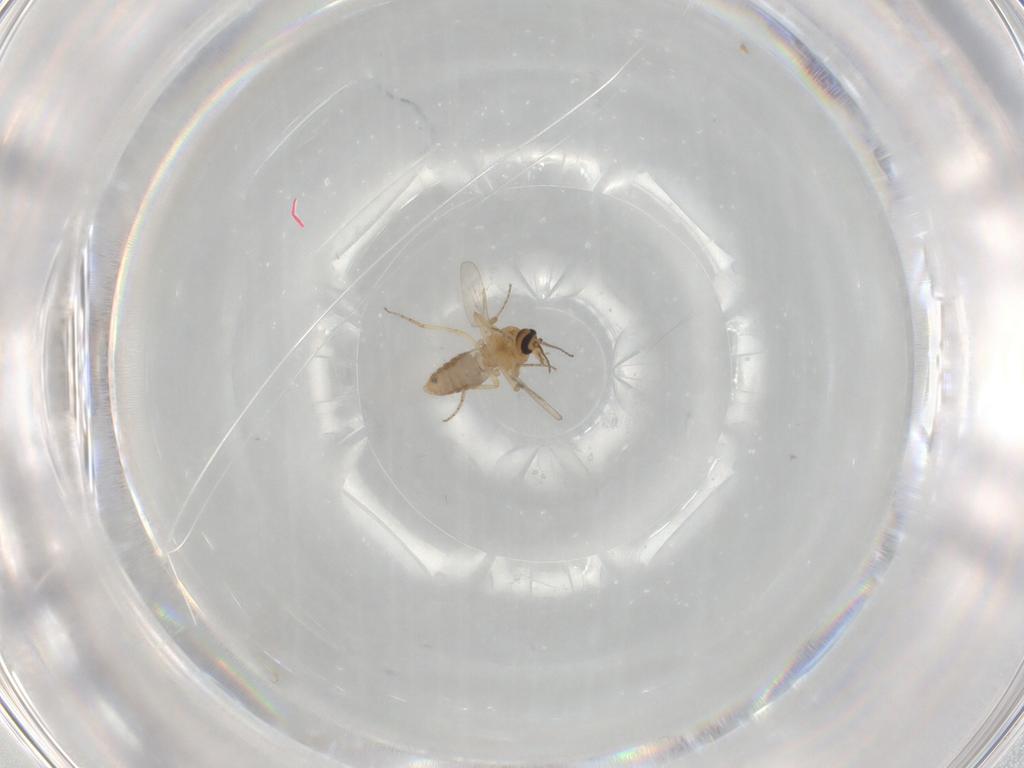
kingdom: Animalia
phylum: Arthropoda
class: Insecta
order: Diptera
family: Ceratopogonidae
